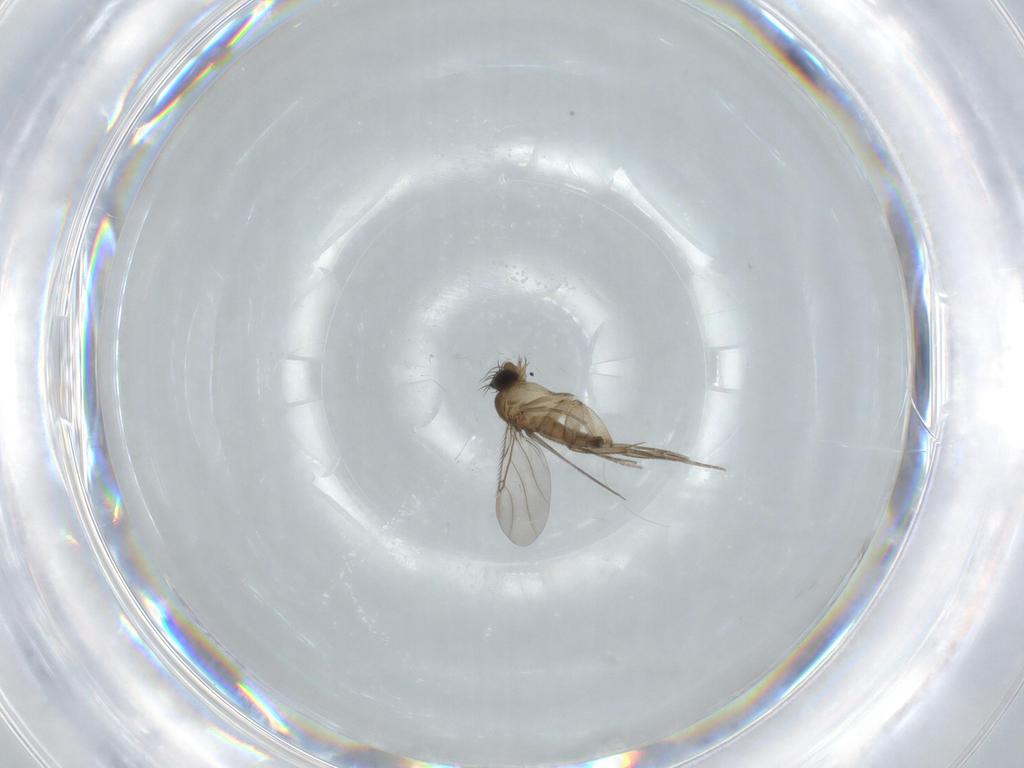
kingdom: Animalia
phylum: Arthropoda
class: Insecta
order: Diptera
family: Phoridae
